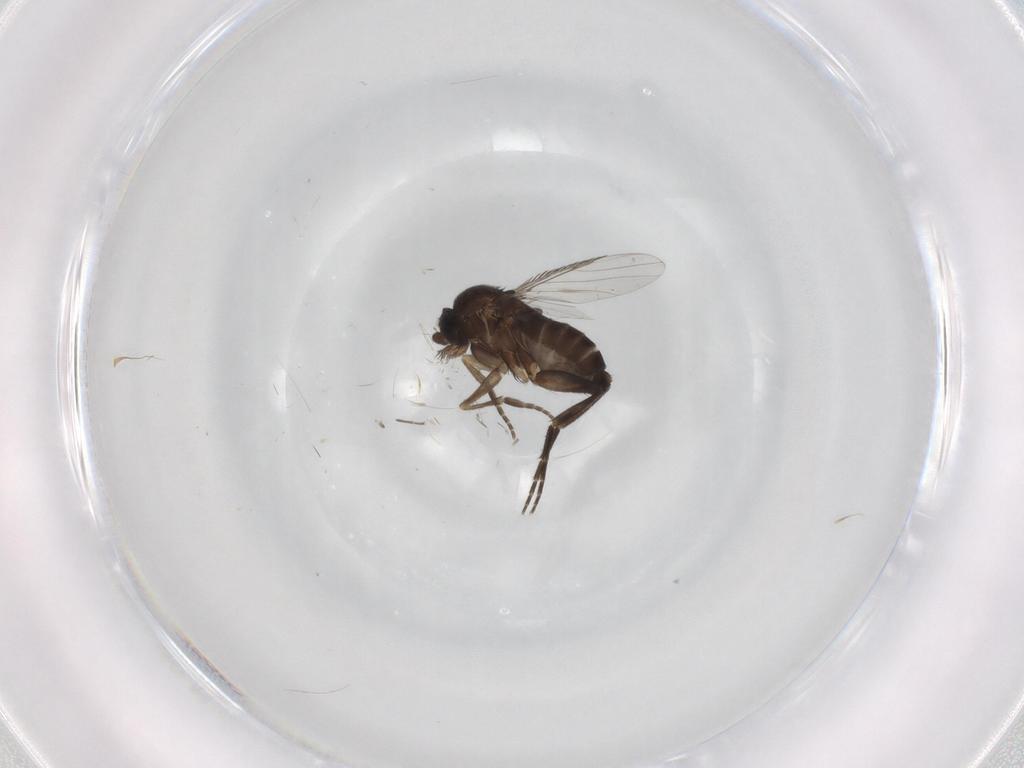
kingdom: Animalia
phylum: Arthropoda
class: Insecta
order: Diptera
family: Phoridae
